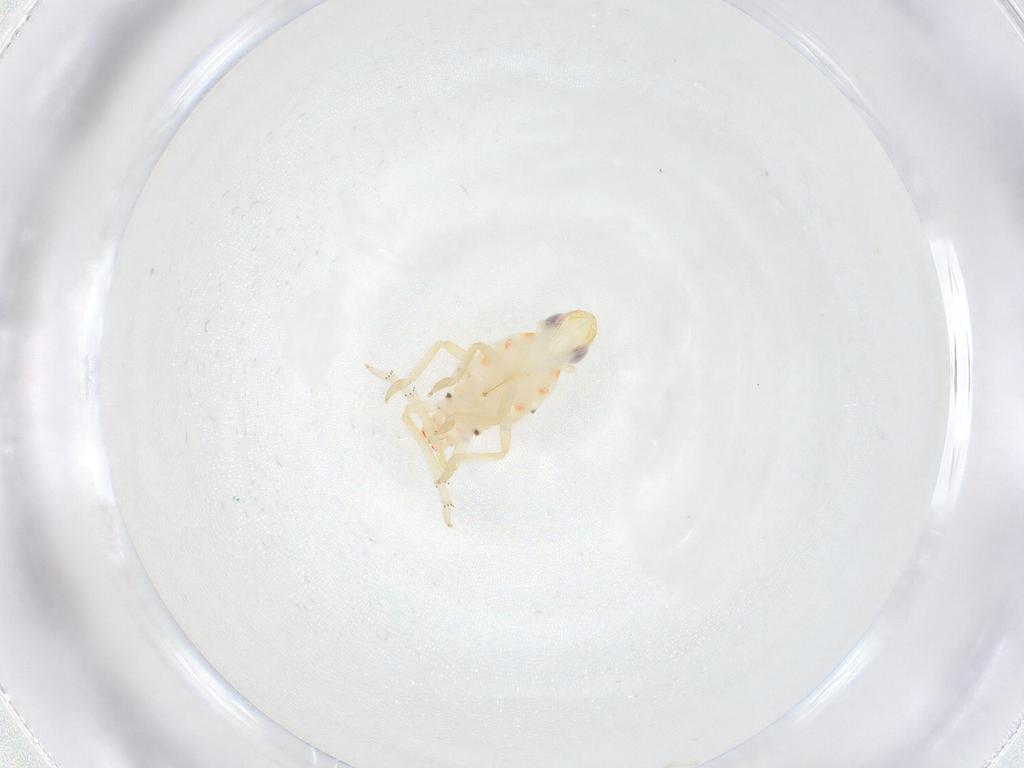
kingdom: Animalia
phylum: Arthropoda
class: Insecta
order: Hemiptera
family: Tropiduchidae
